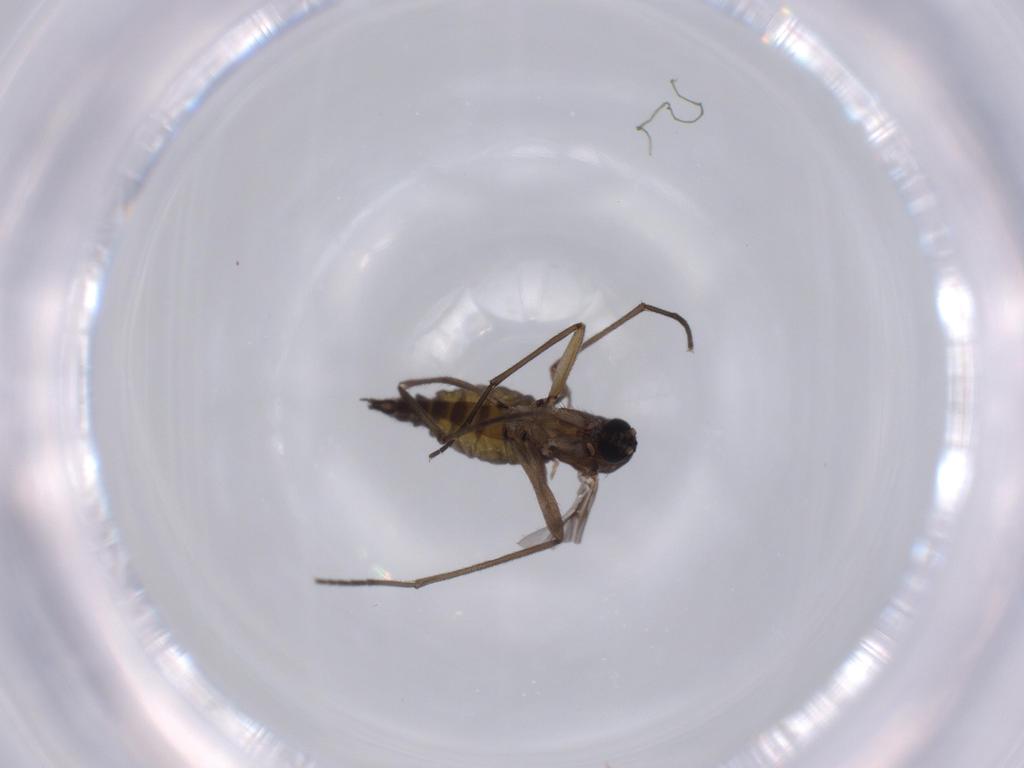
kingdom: Animalia
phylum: Arthropoda
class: Insecta
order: Diptera
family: Sciaridae
